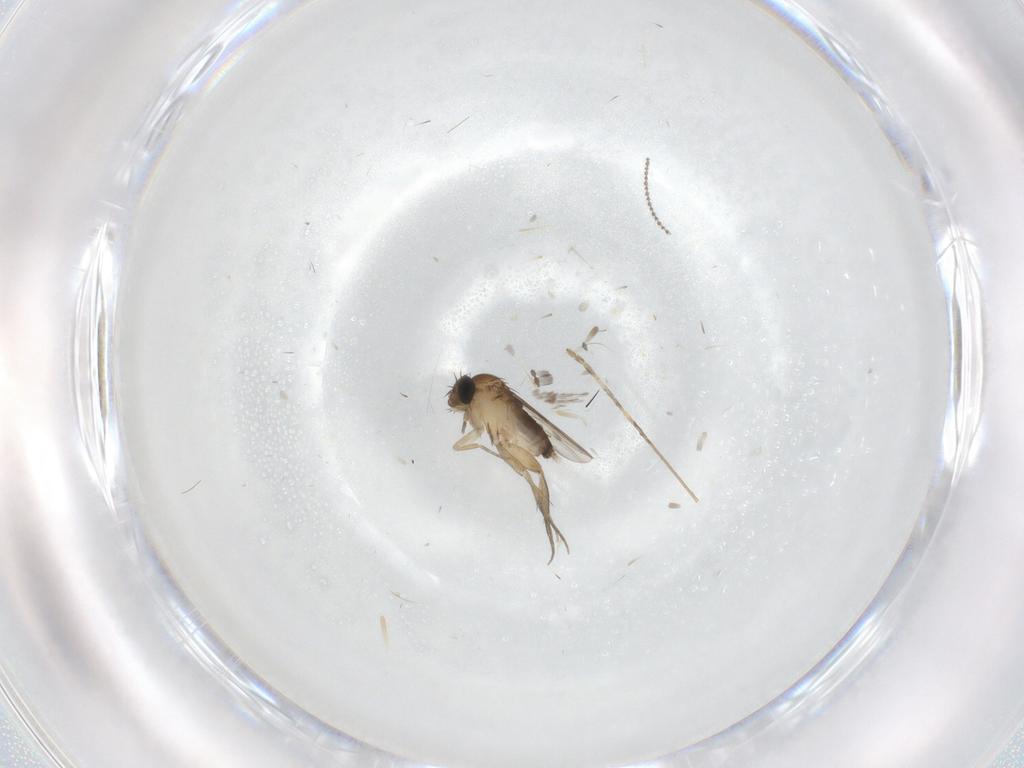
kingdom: Animalia
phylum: Arthropoda
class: Insecta
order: Diptera
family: Phoridae
